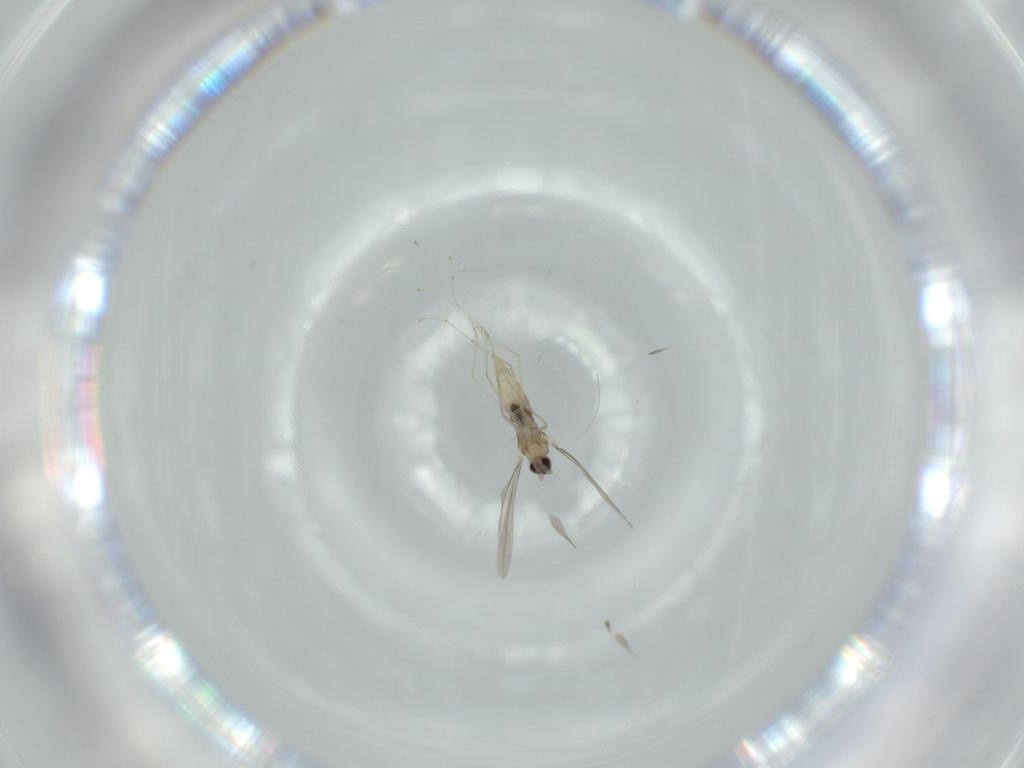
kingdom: Animalia
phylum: Arthropoda
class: Insecta
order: Diptera
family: Cecidomyiidae
